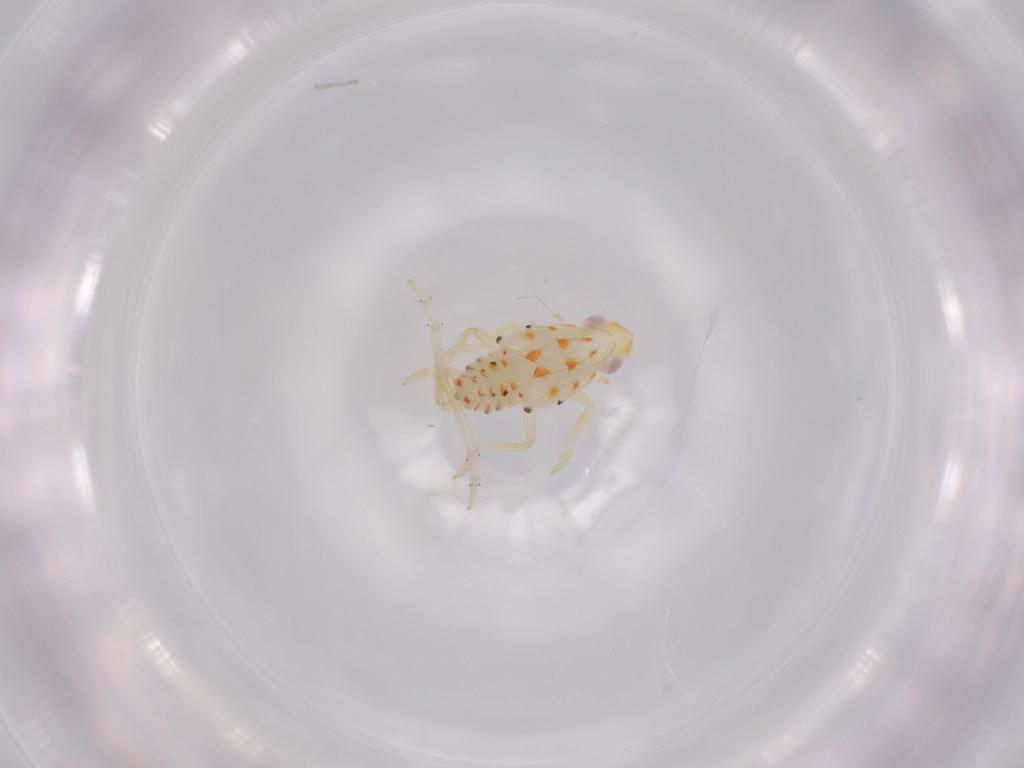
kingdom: Animalia
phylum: Arthropoda
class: Insecta
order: Hemiptera
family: Tropiduchidae
